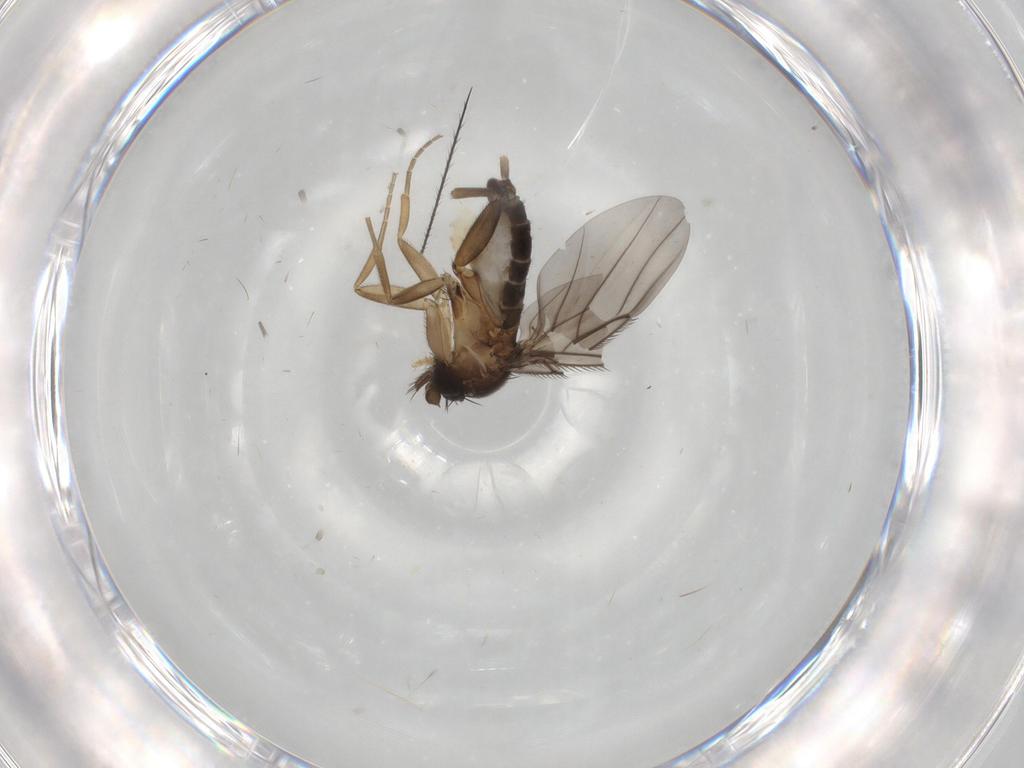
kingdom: Animalia
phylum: Arthropoda
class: Insecta
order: Diptera
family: Phoridae
